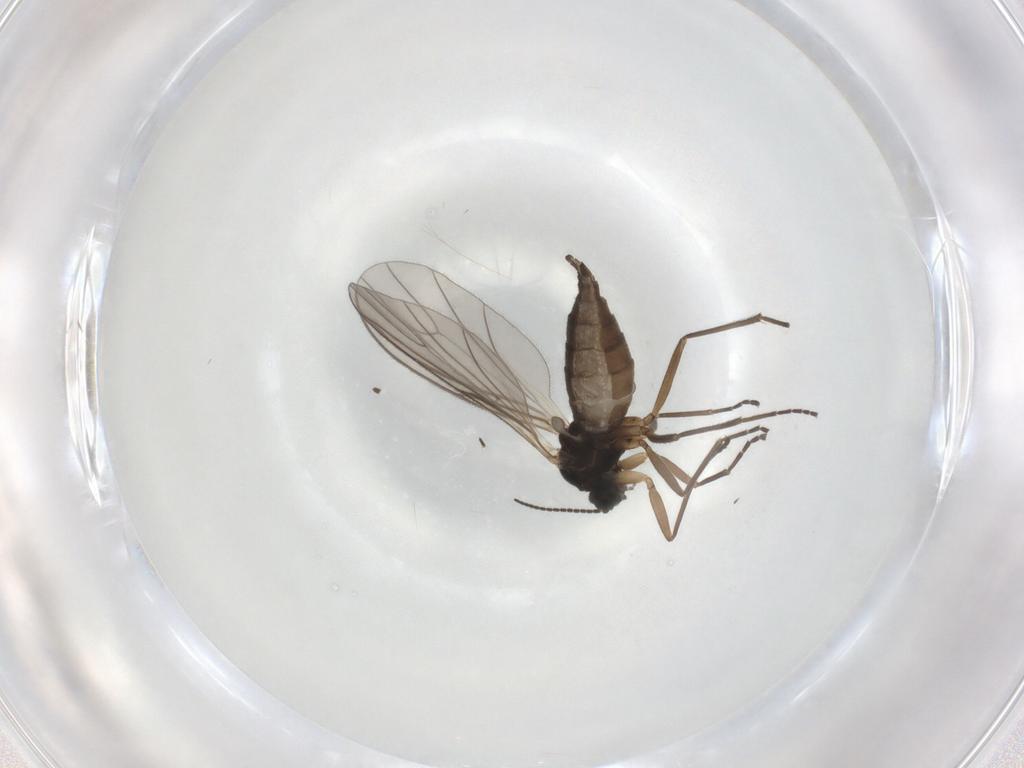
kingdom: Animalia
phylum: Arthropoda
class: Insecta
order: Diptera
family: Sciaridae
